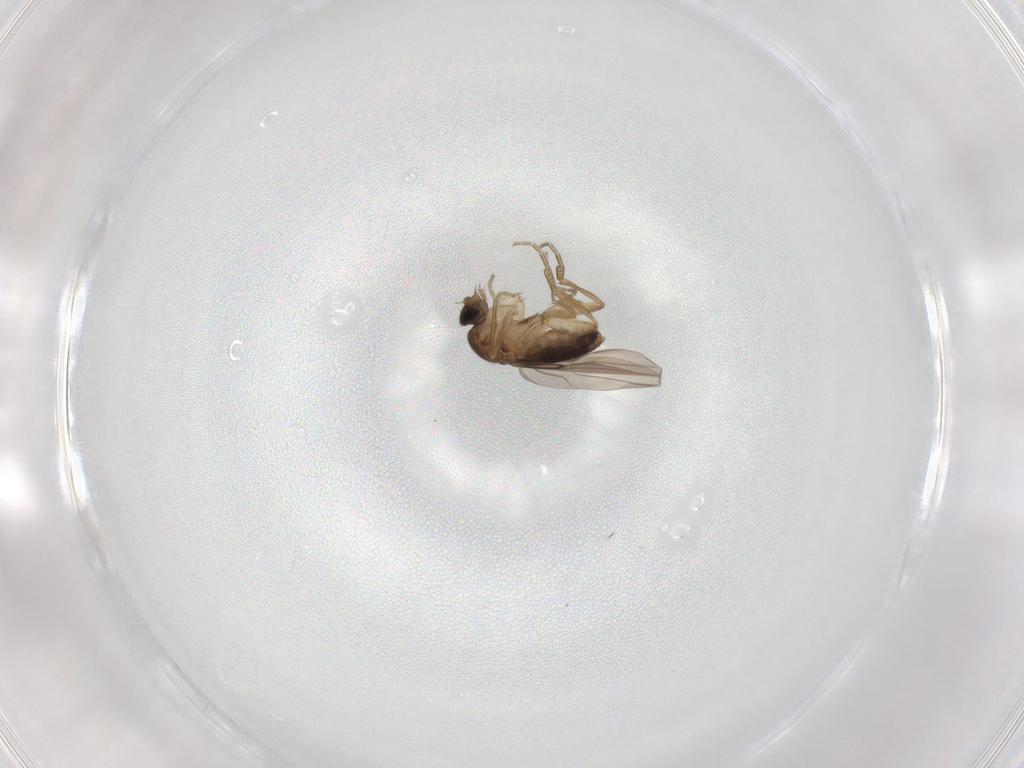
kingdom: Animalia
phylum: Arthropoda
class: Insecta
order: Diptera
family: Phoridae
